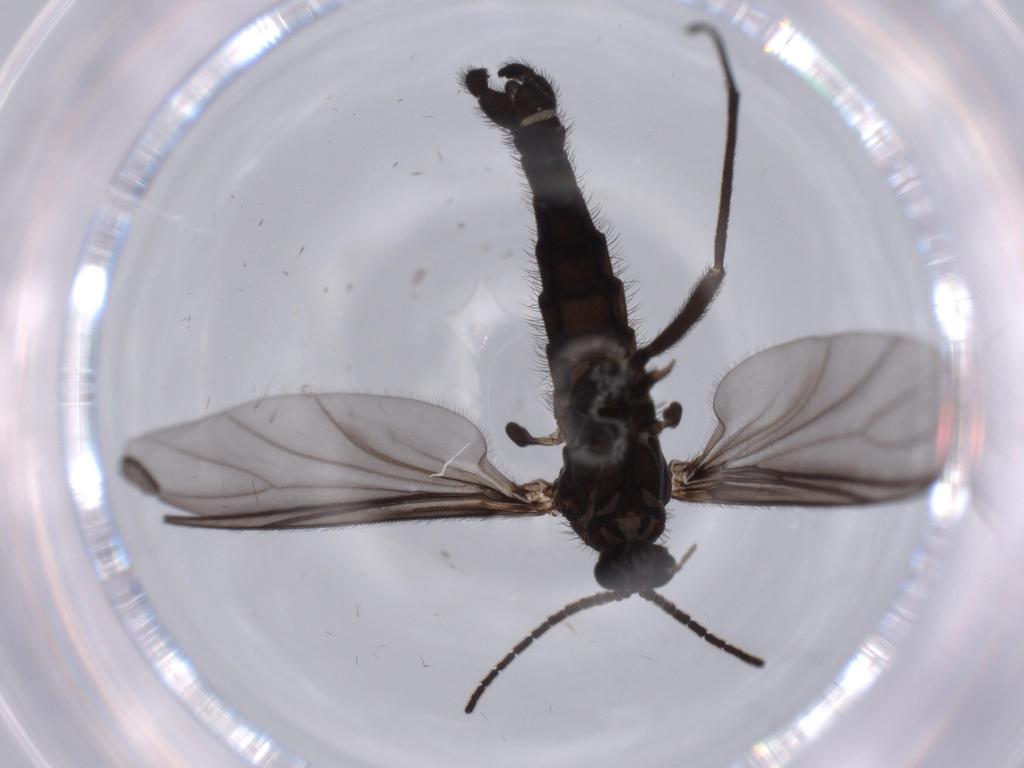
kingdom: Animalia
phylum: Arthropoda
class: Insecta
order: Diptera
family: Cecidomyiidae
